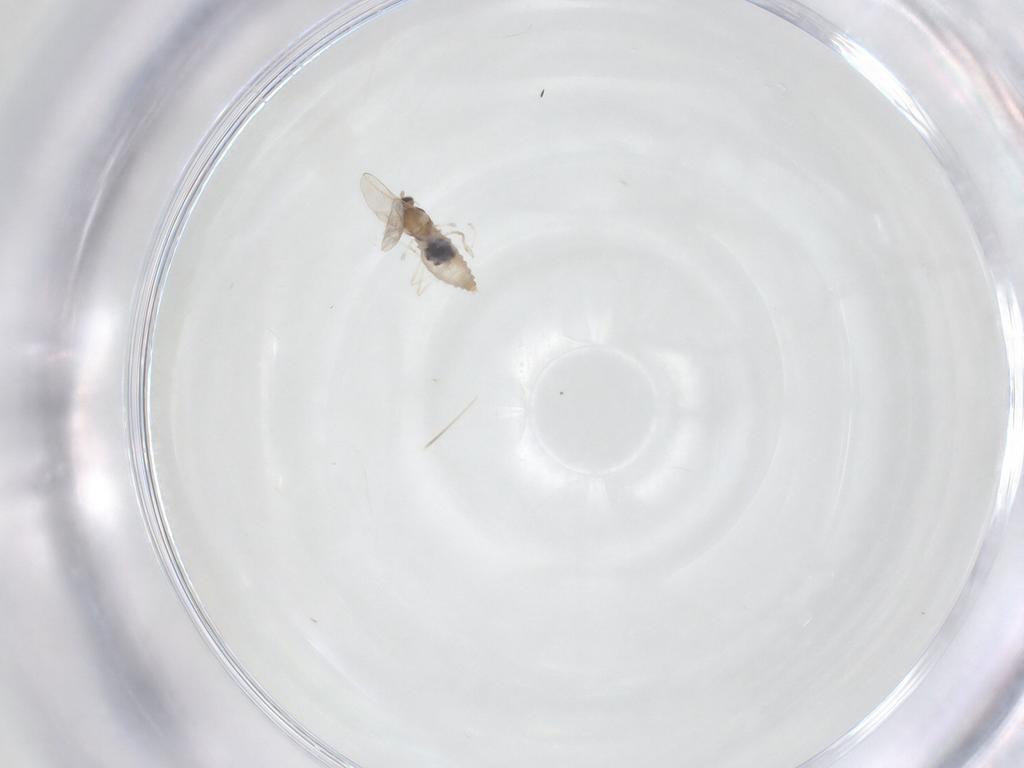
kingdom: Animalia
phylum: Arthropoda
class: Insecta
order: Diptera
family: Cecidomyiidae
